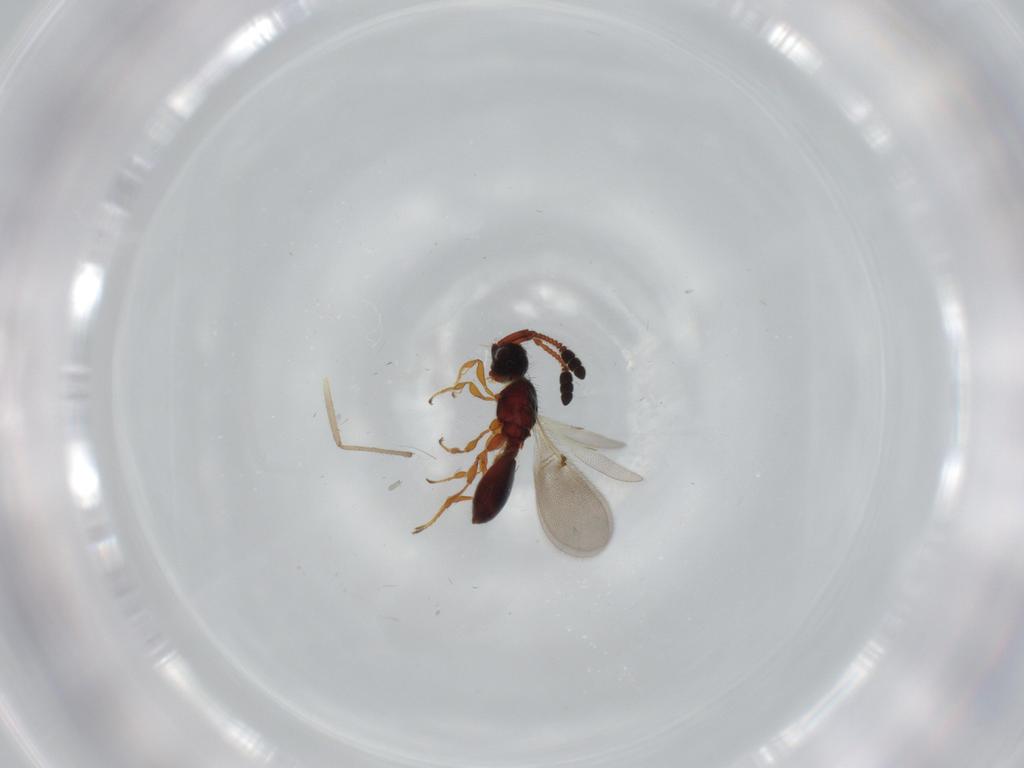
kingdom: Animalia
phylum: Arthropoda
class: Insecta
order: Hymenoptera
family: Diapriidae
